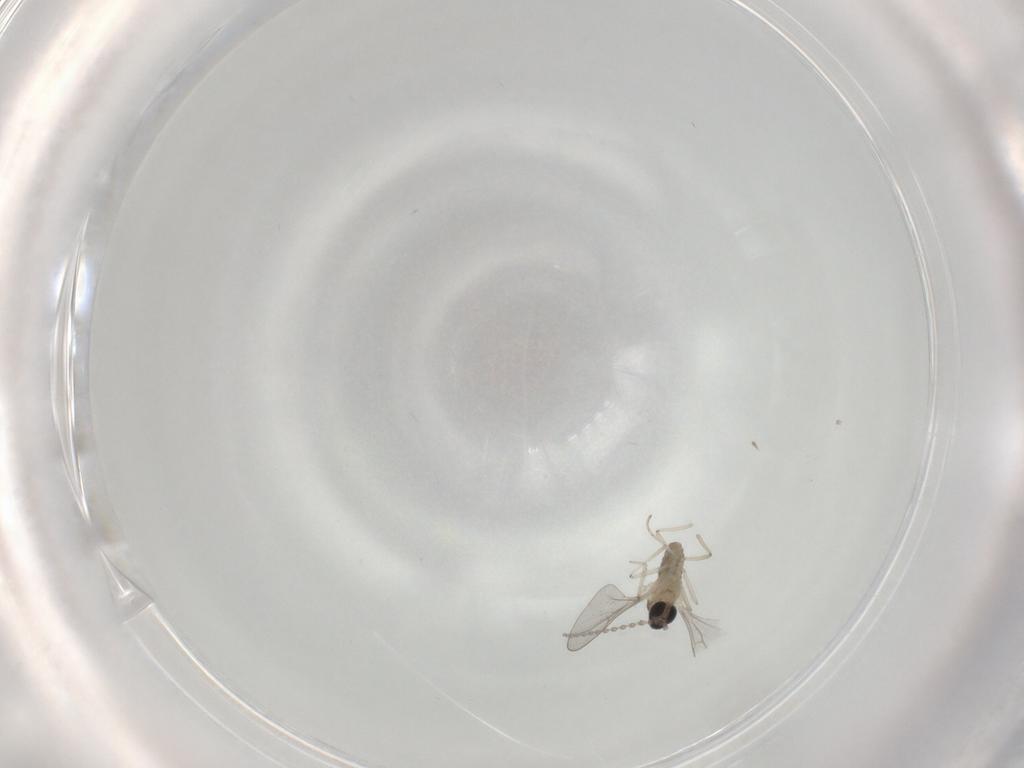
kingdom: Animalia
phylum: Arthropoda
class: Insecta
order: Diptera
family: Cecidomyiidae
